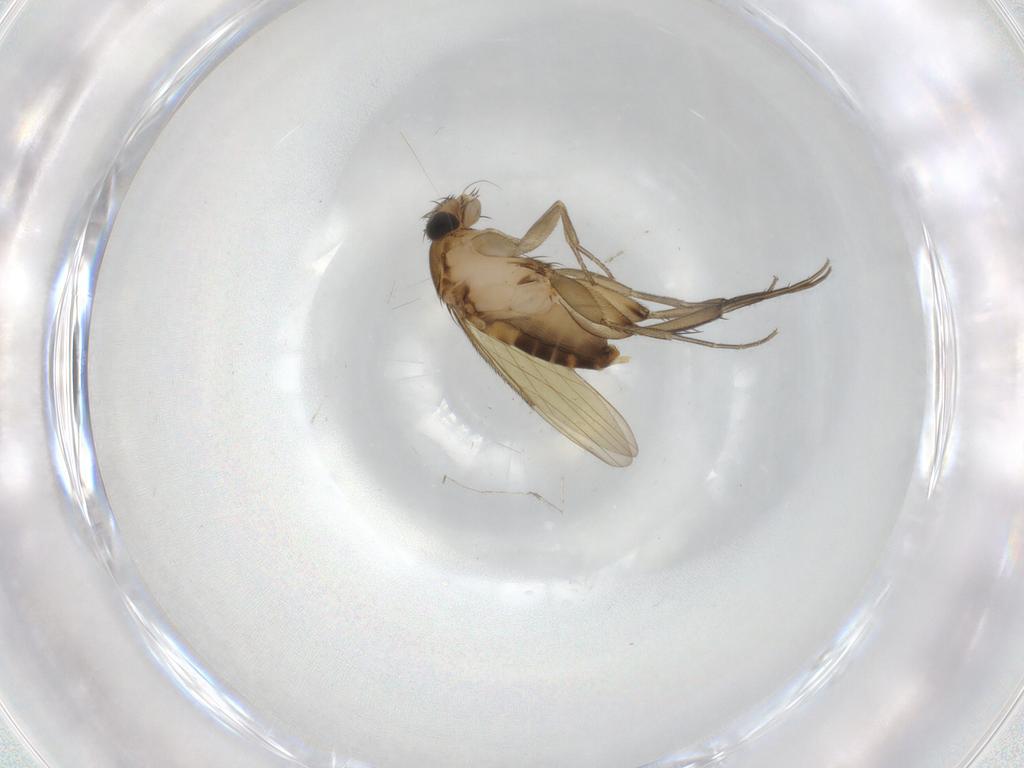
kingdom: Animalia
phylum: Arthropoda
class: Insecta
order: Diptera
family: Phoridae
